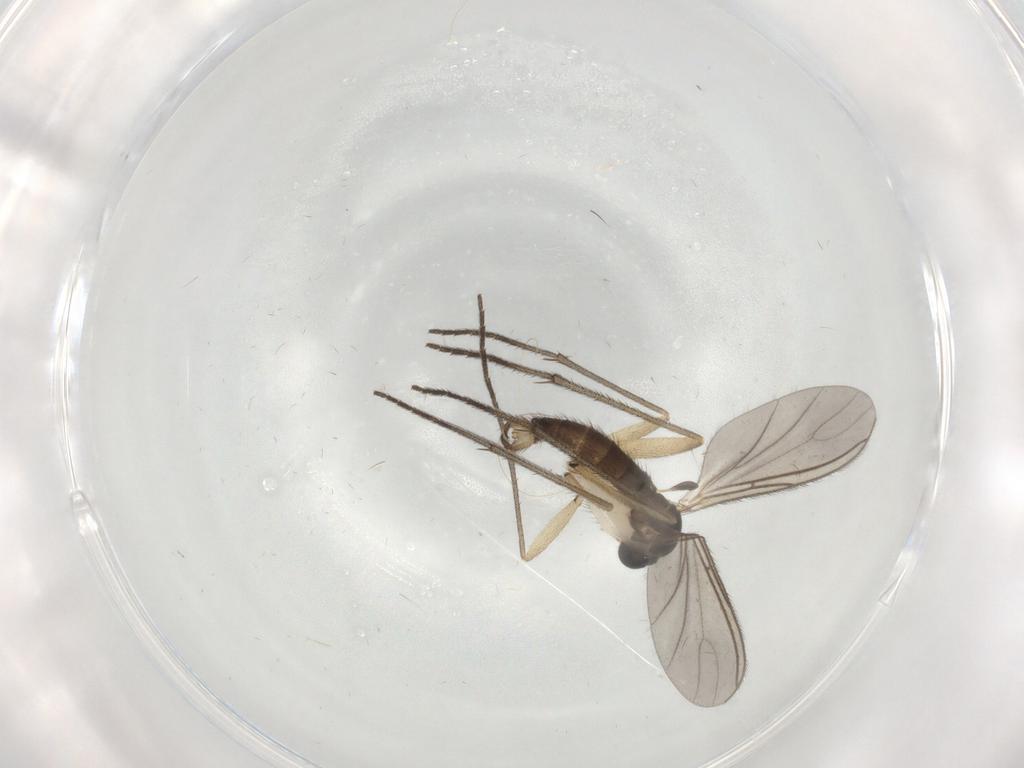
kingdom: Animalia
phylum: Arthropoda
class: Insecta
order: Diptera
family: Sciaridae
